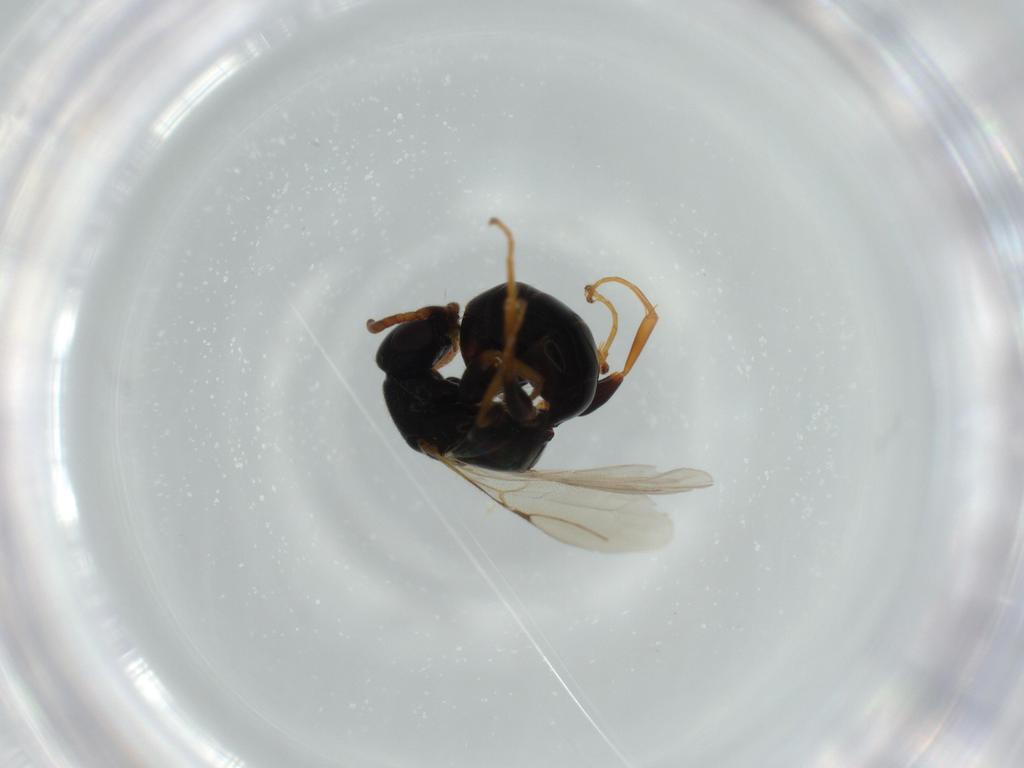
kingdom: Animalia
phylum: Arthropoda
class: Insecta
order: Hymenoptera
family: Bethylidae
